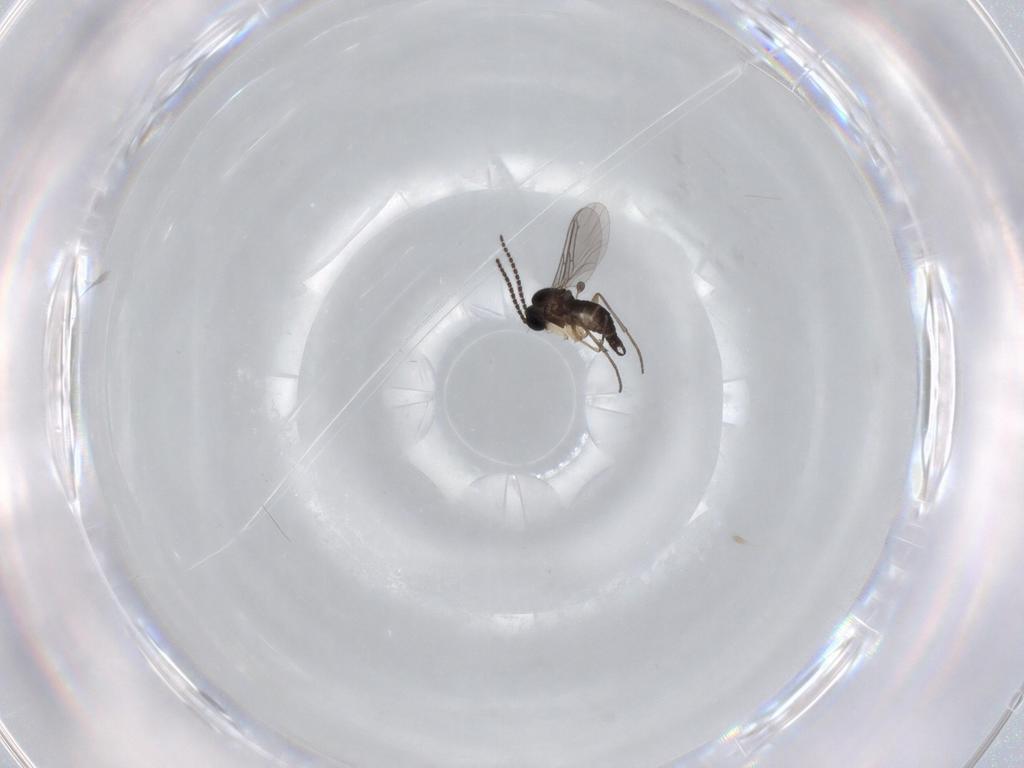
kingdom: Animalia
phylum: Arthropoda
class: Insecta
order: Diptera
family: Sciaridae
